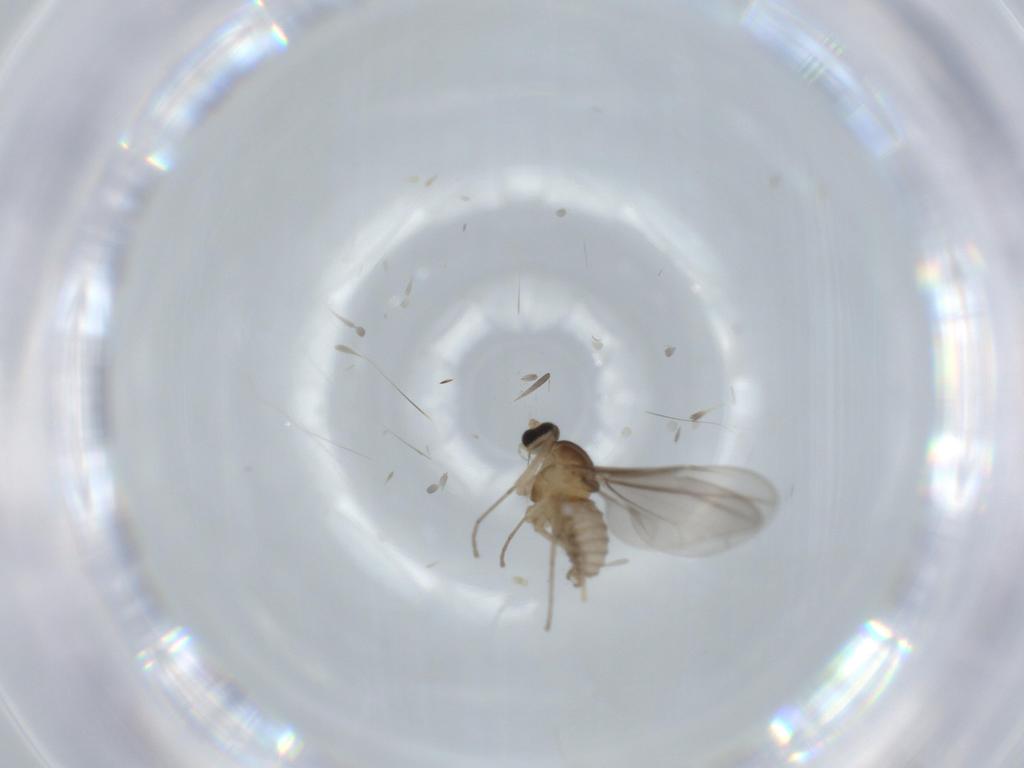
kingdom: Animalia
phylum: Arthropoda
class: Insecta
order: Diptera
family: Cecidomyiidae
